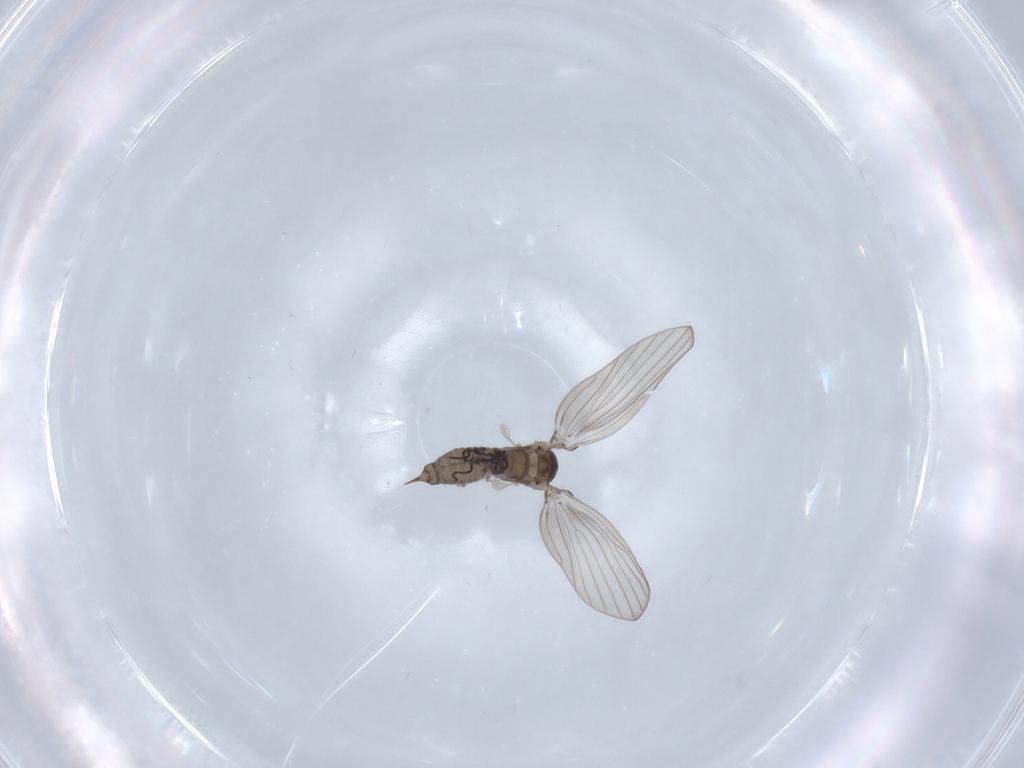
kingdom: Animalia
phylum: Arthropoda
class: Insecta
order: Diptera
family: Psychodidae
